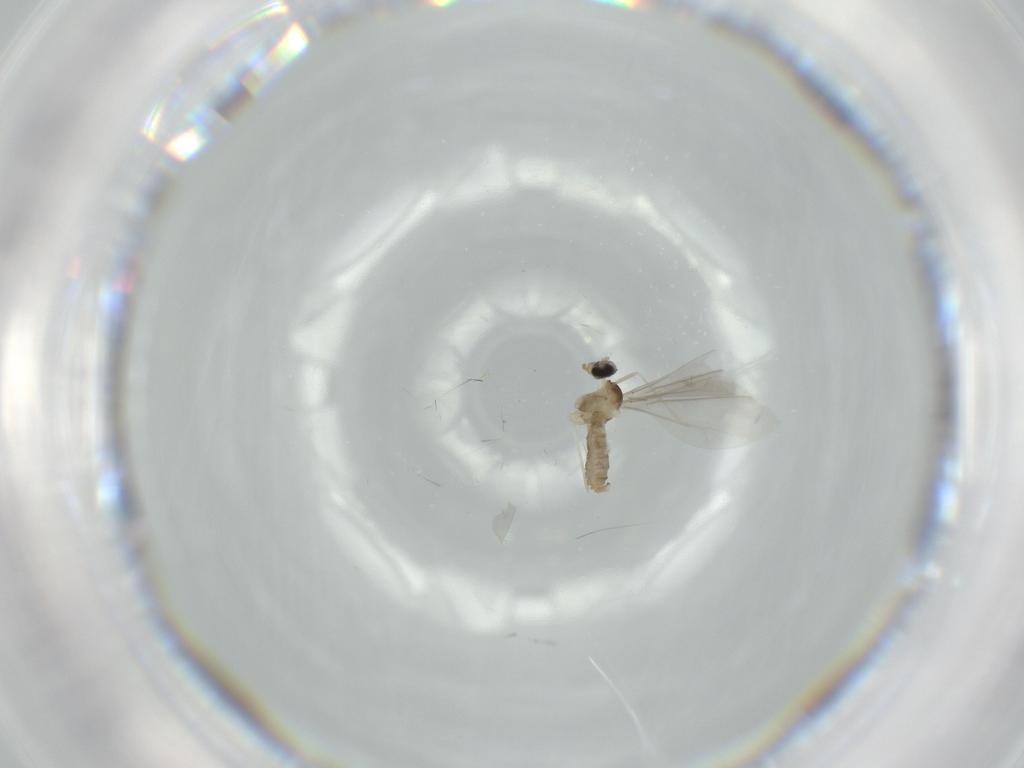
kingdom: Animalia
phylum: Arthropoda
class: Insecta
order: Diptera
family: Cecidomyiidae
